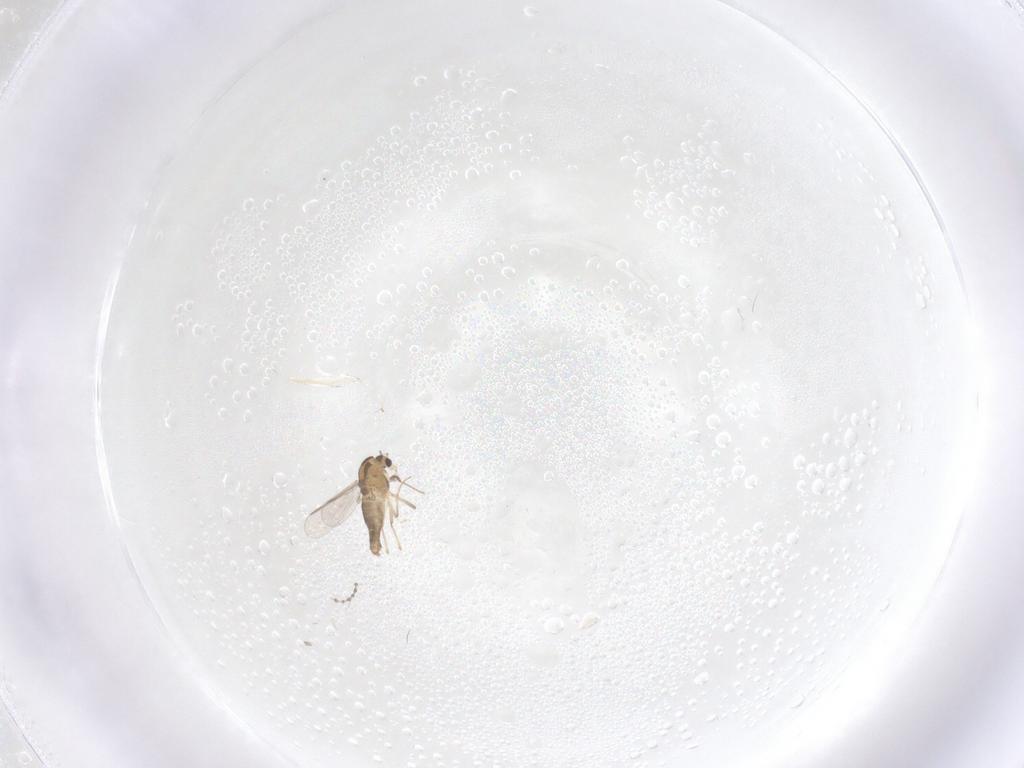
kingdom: Animalia
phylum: Arthropoda
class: Insecta
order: Diptera
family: Chironomidae
